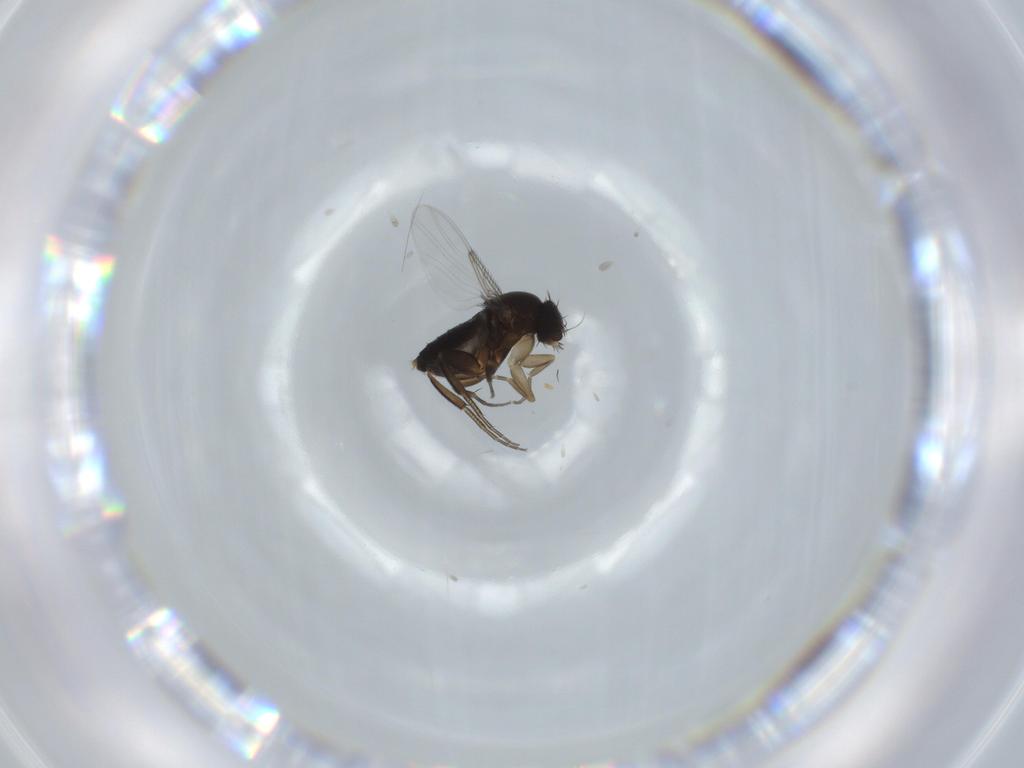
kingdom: Animalia
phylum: Arthropoda
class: Insecta
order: Diptera
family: Phoridae
